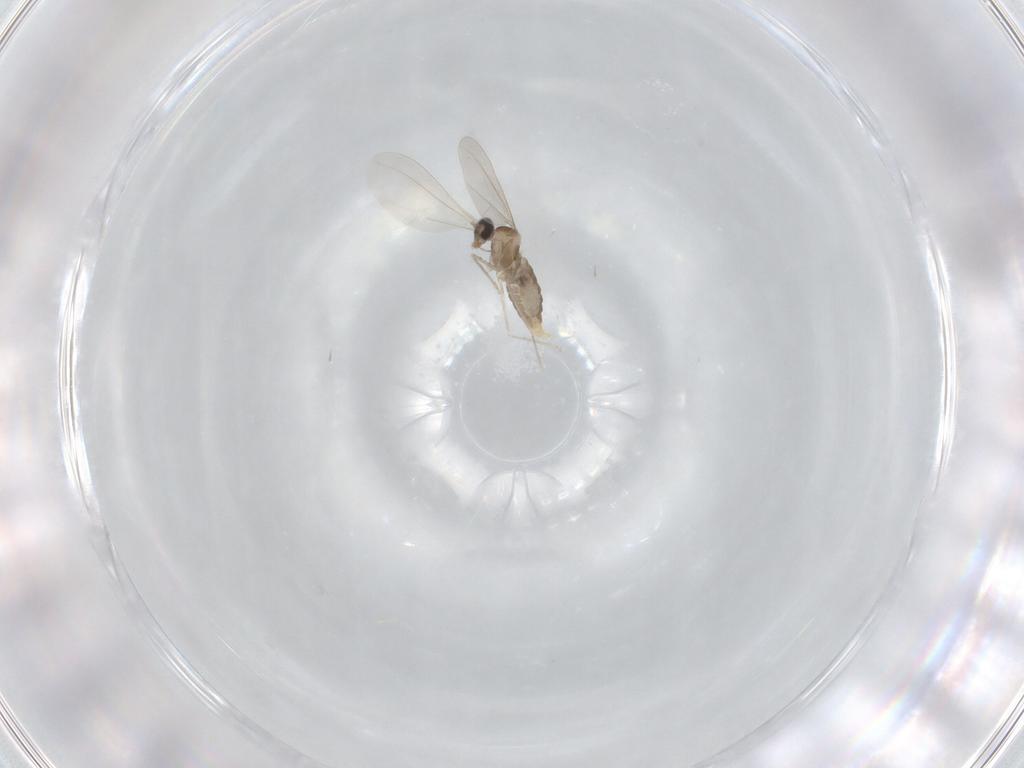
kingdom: Animalia
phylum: Arthropoda
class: Insecta
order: Diptera
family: Cecidomyiidae
